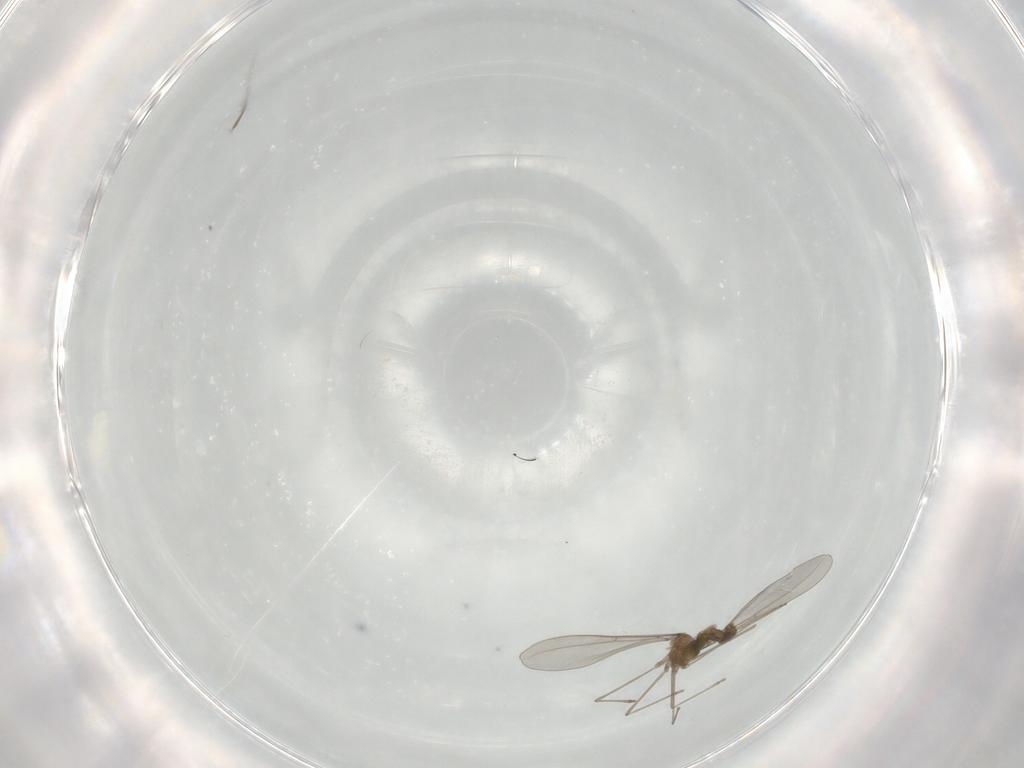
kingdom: Animalia
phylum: Arthropoda
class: Insecta
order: Diptera
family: Cecidomyiidae
